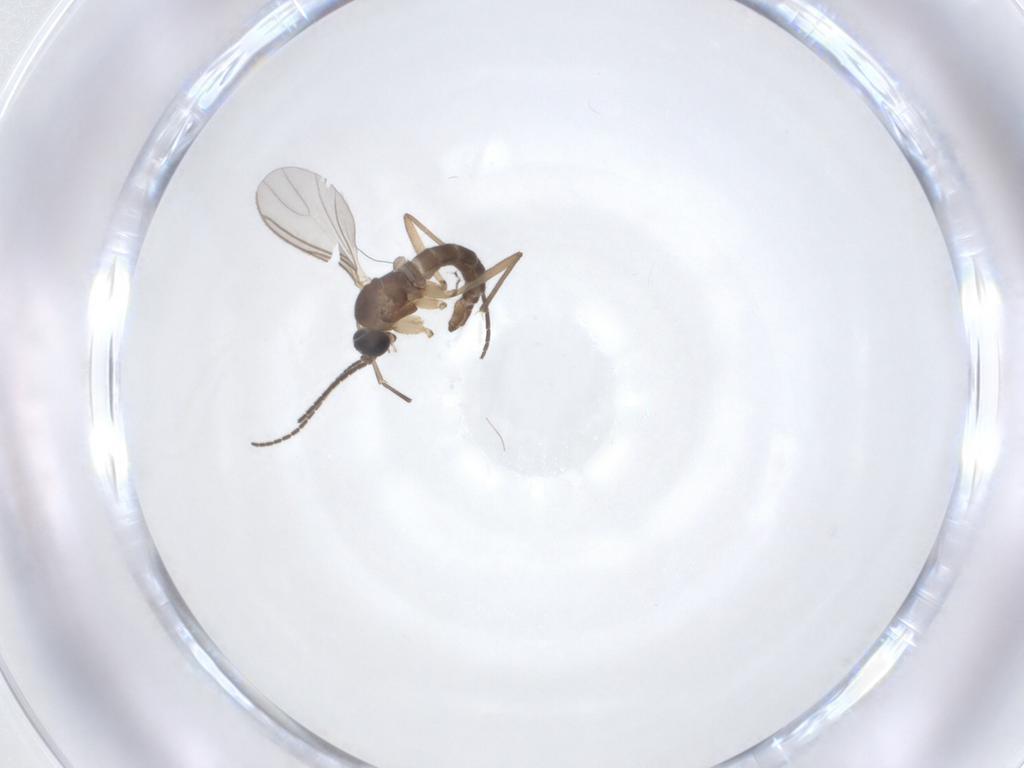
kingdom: Animalia
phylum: Arthropoda
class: Insecta
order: Diptera
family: Sciaridae
